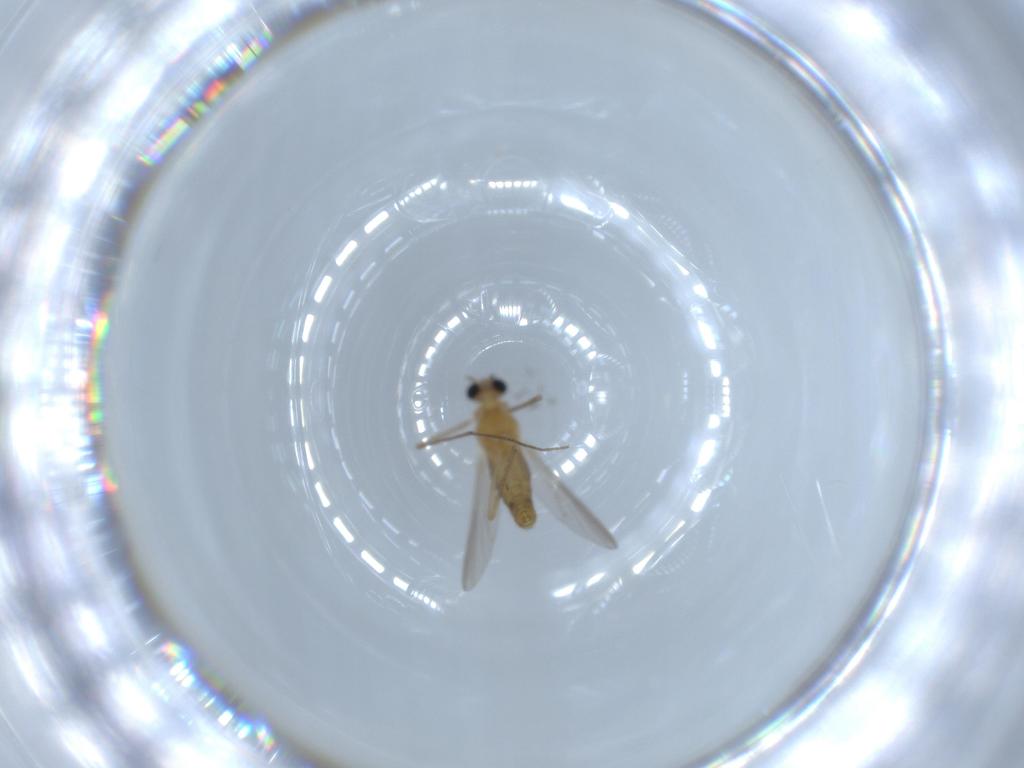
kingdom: Animalia
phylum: Arthropoda
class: Insecta
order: Diptera
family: Chironomidae
